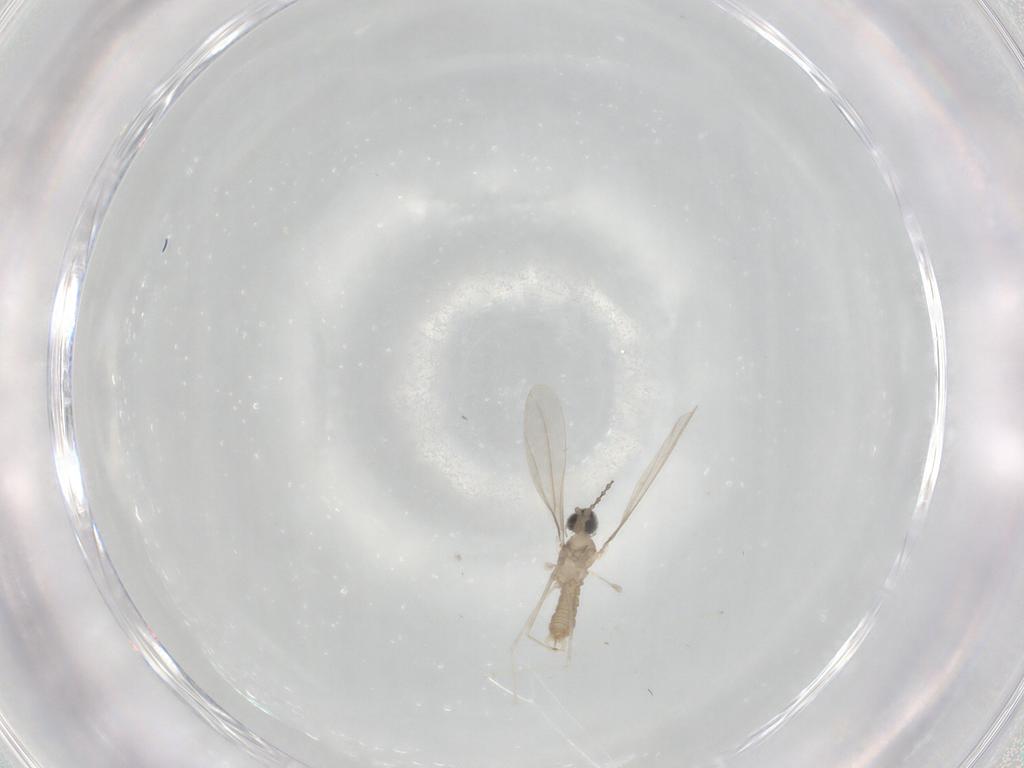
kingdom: Animalia
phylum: Arthropoda
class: Insecta
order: Diptera
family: Cecidomyiidae
